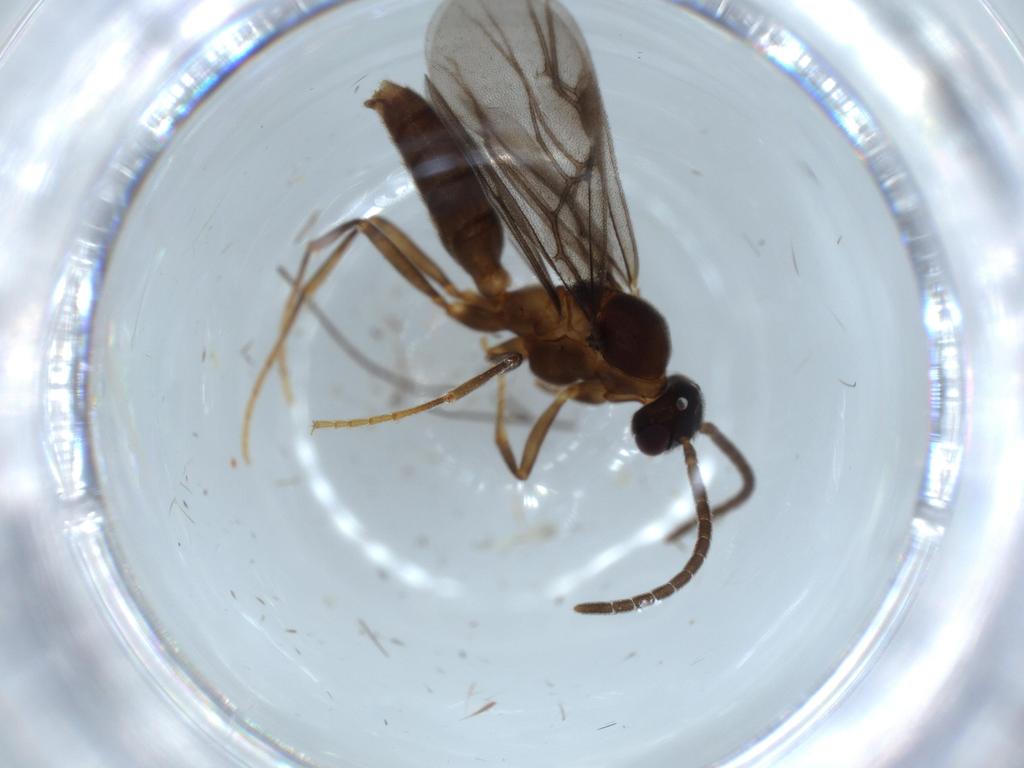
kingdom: Animalia
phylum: Arthropoda
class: Insecta
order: Hymenoptera
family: Formicidae
